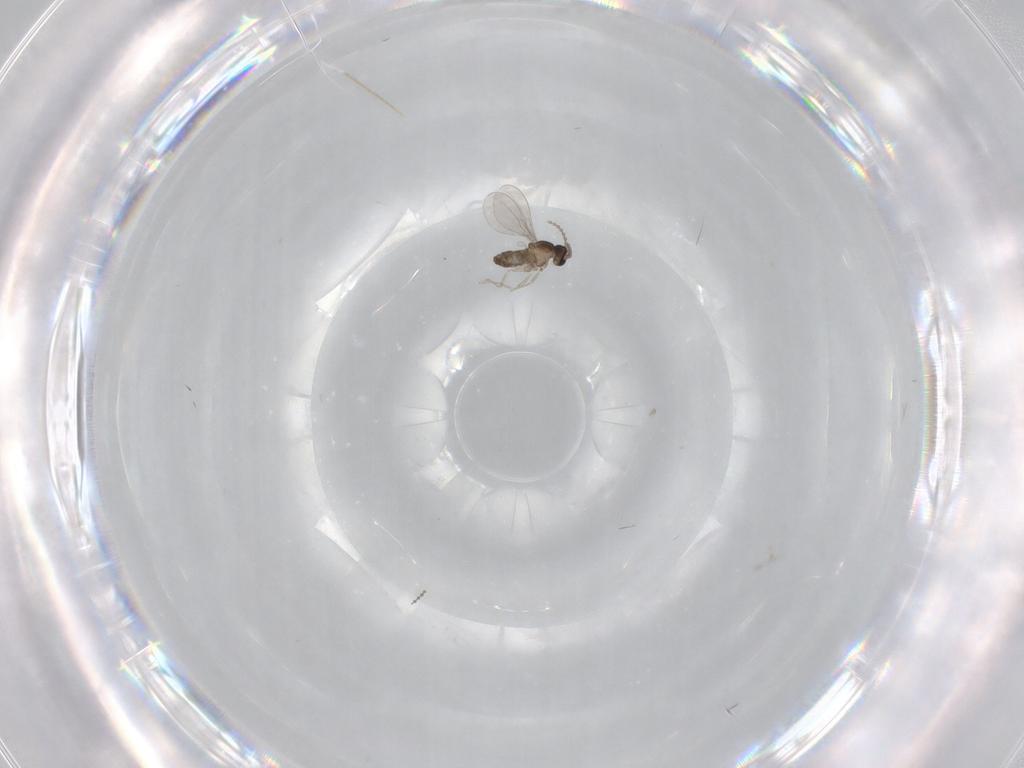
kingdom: Animalia
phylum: Arthropoda
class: Insecta
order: Diptera
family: Cecidomyiidae
